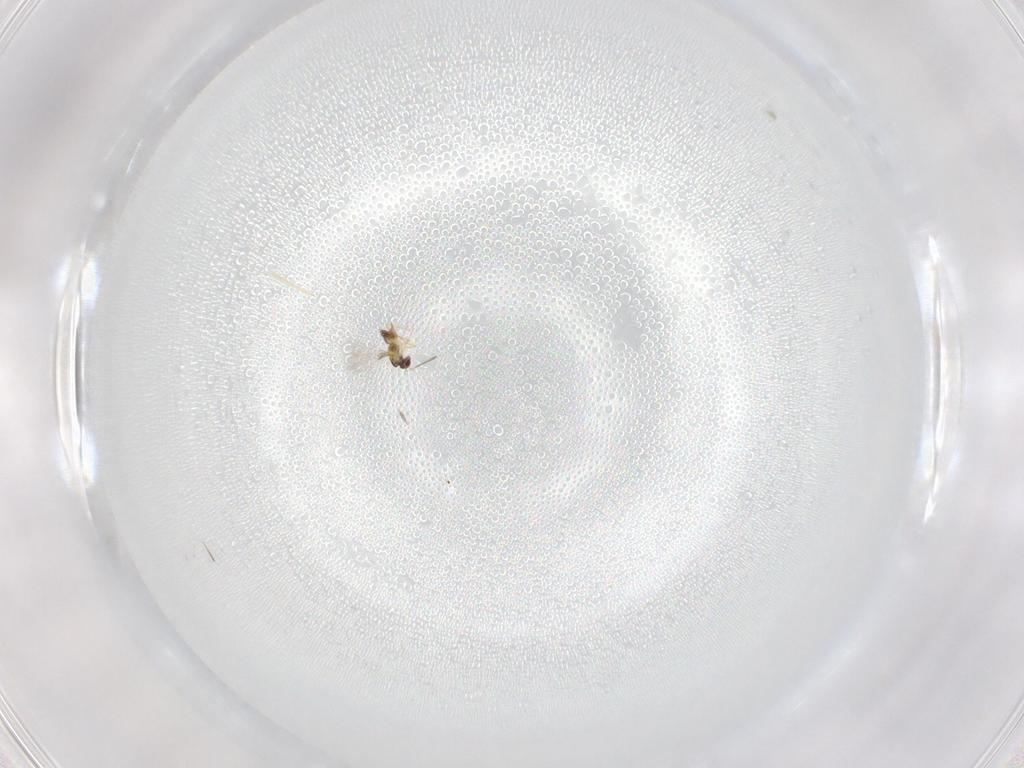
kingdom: Animalia
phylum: Arthropoda
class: Insecta
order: Hymenoptera
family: Mymaridae
